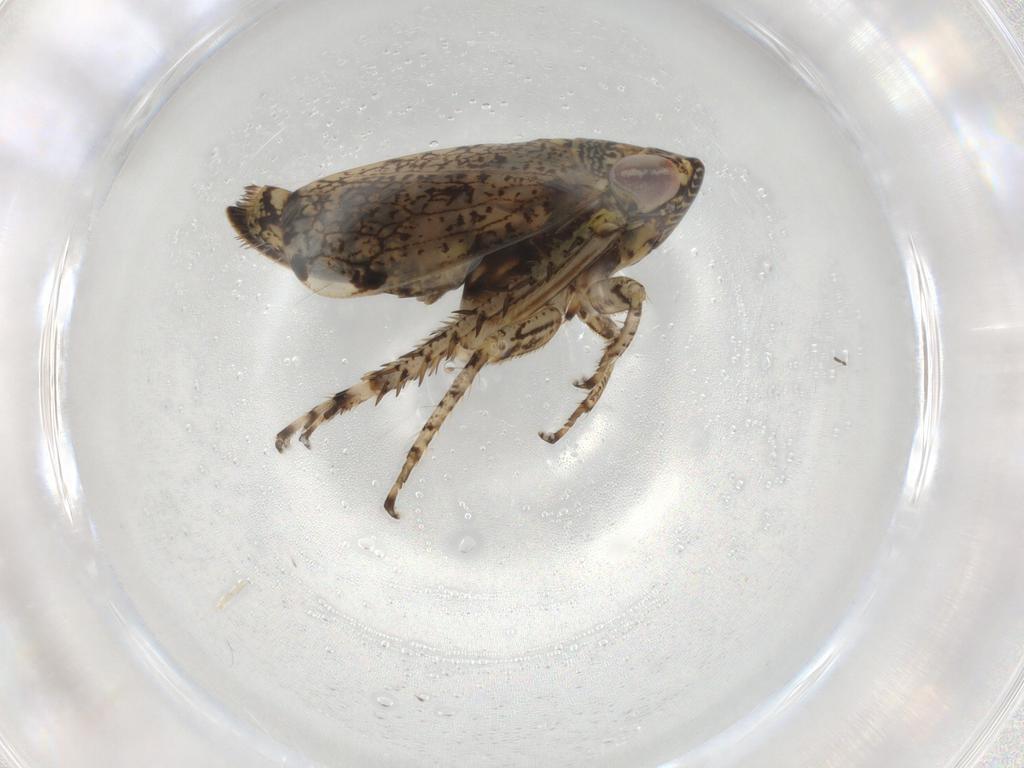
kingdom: Animalia
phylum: Arthropoda
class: Insecta
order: Hemiptera
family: Cicadellidae
